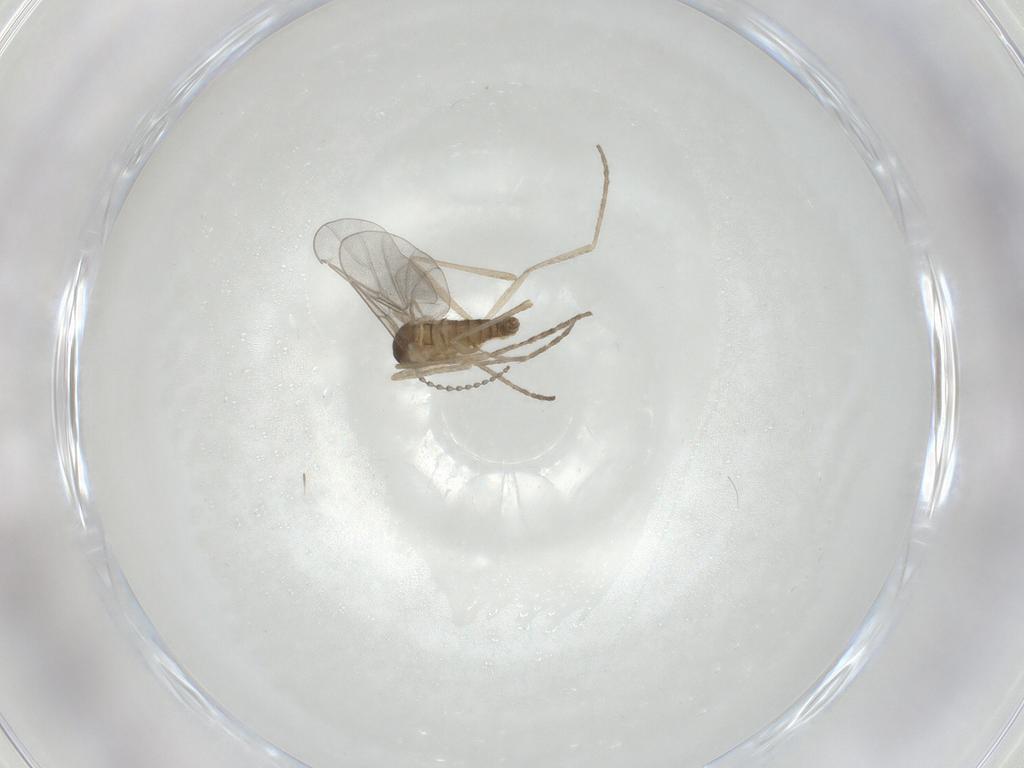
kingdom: Animalia
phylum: Arthropoda
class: Insecta
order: Diptera
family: Cecidomyiidae
